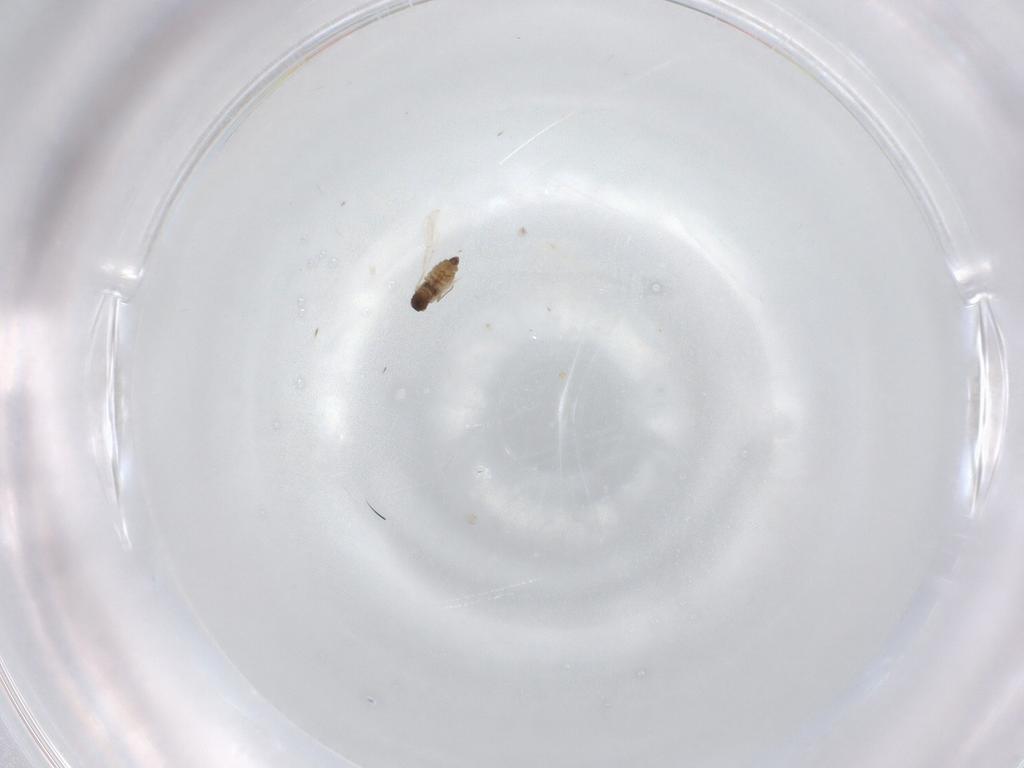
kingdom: Animalia
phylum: Arthropoda
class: Insecta
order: Diptera
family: Cecidomyiidae
